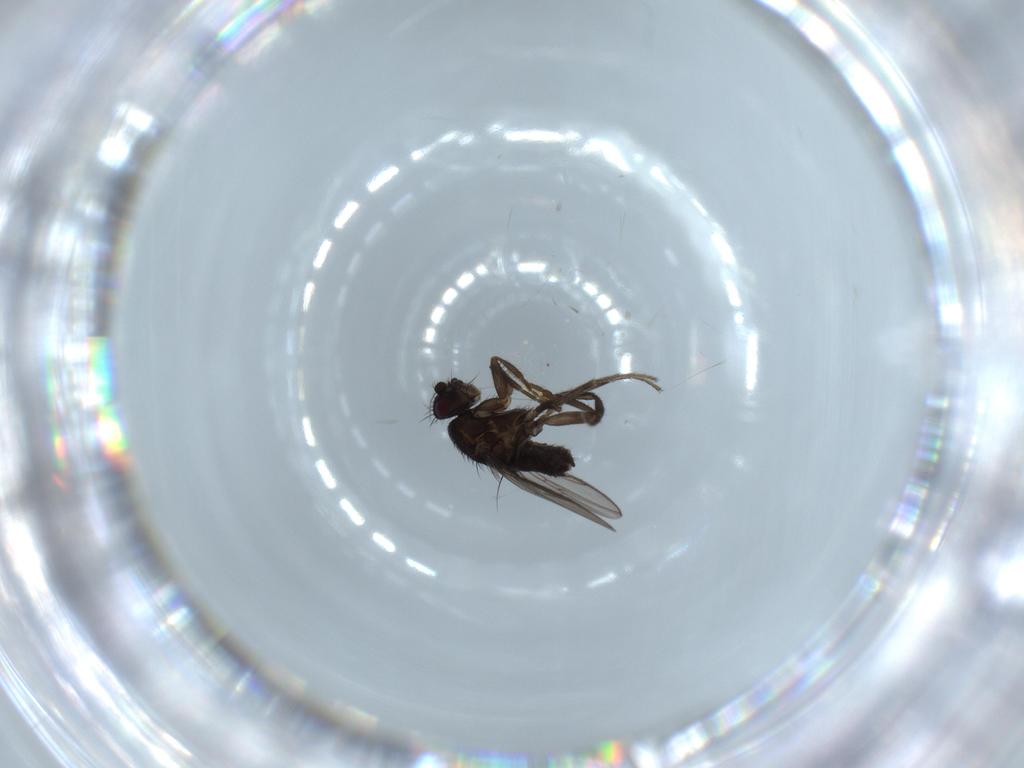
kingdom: Animalia
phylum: Arthropoda
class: Insecta
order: Diptera
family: Sphaeroceridae
